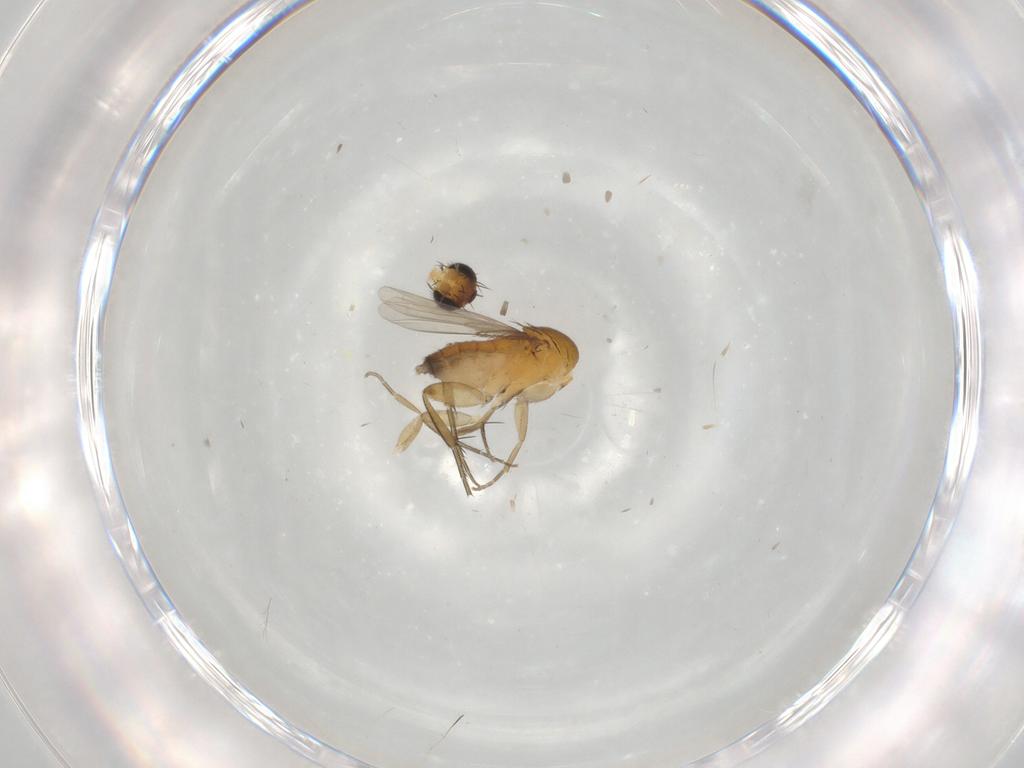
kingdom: Animalia
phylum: Arthropoda
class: Insecta
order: Diptera
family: Phoridae
